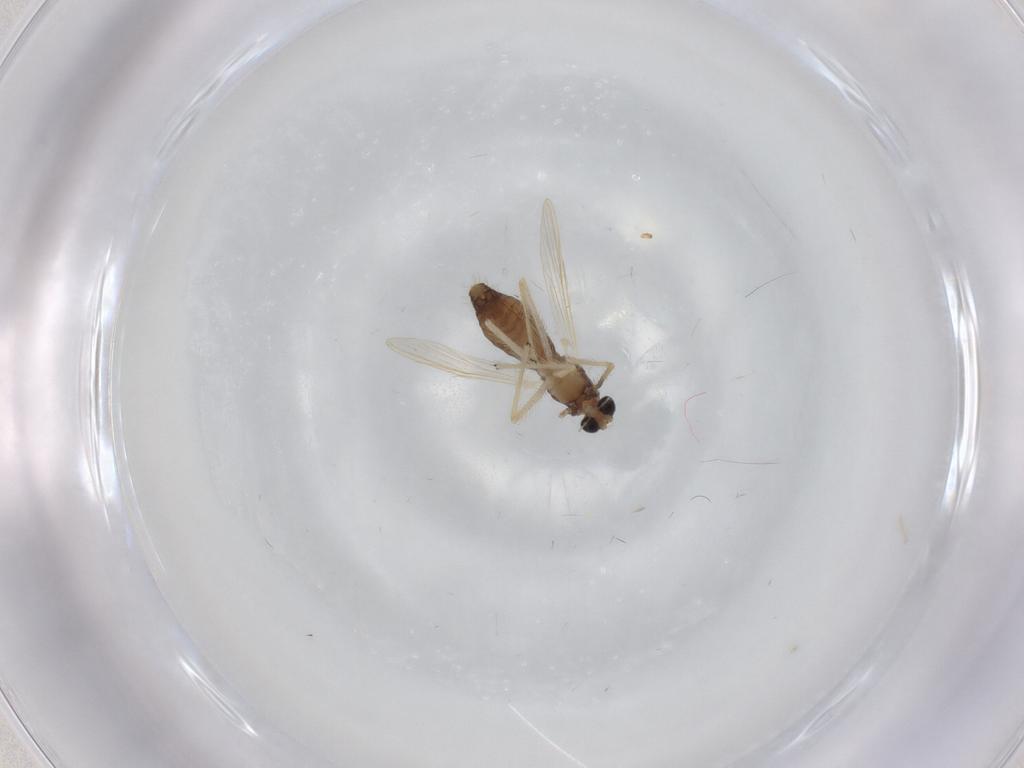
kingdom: Animalia
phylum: Arthropoda
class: Insecta
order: Diptera
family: Chironomidae
